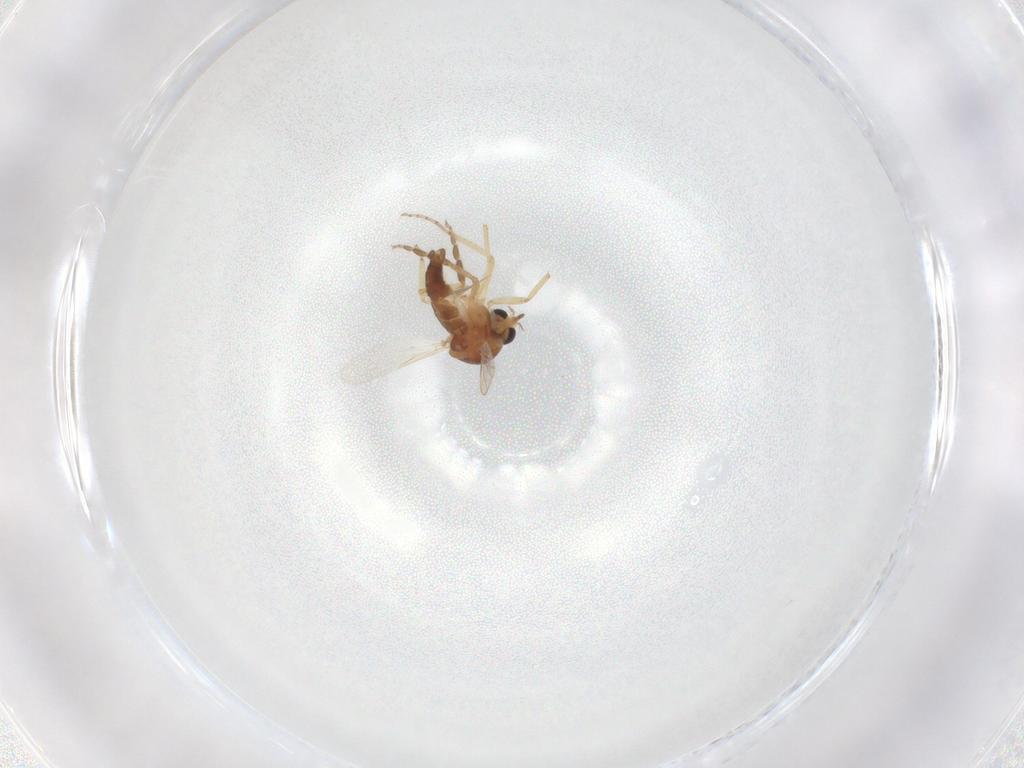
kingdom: Animalia
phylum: Arthropoda
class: Insecta
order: Diptera
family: Ceratopogonidae
